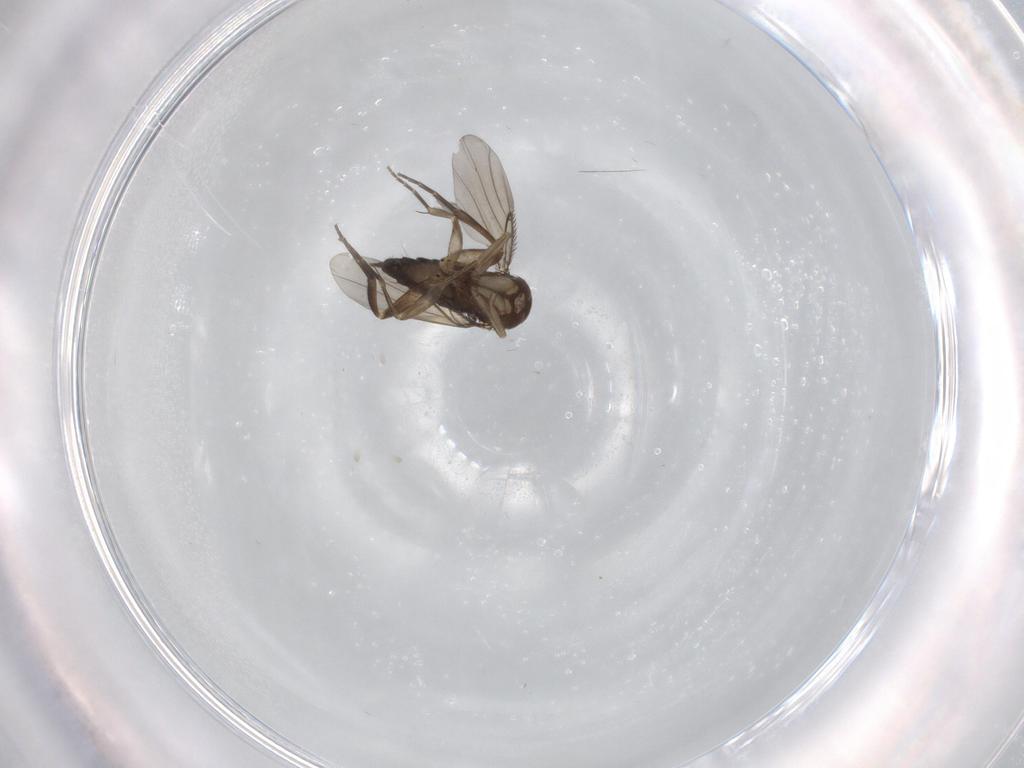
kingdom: Animalia
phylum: Arthropoda
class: Insecta
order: Diptera
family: Phoridae
